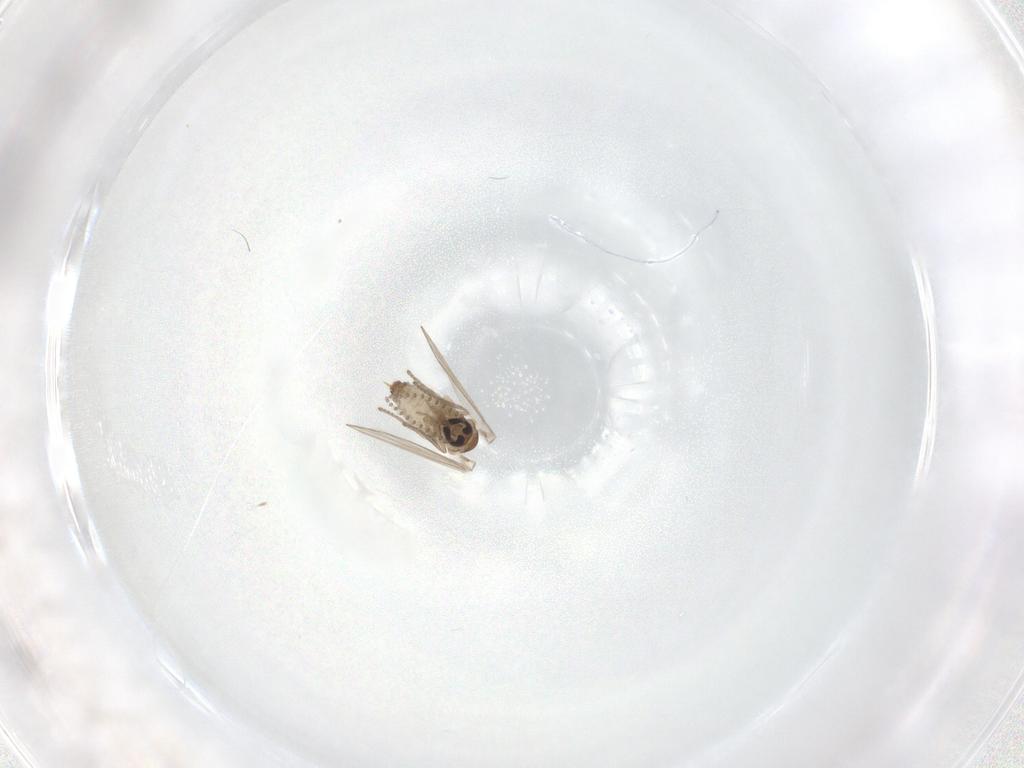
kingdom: Animalia
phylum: Arthropoda
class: Insecta
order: Diptera
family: Psychodidae
